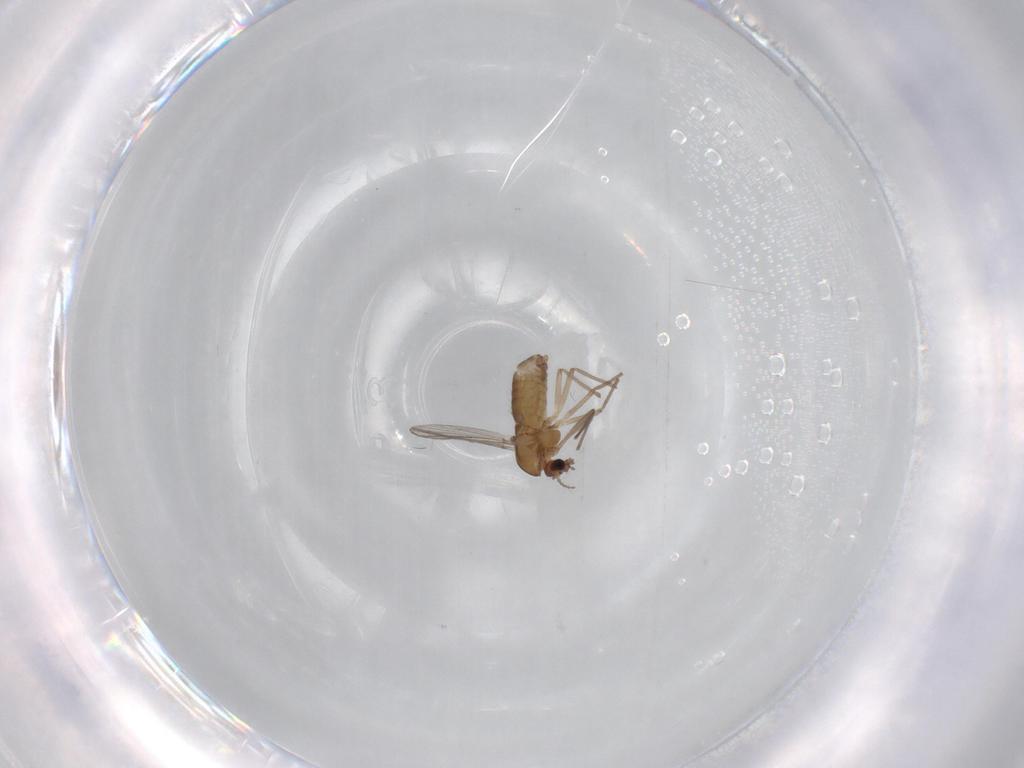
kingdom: Animalia
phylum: Arthropoda
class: Insecta
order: Diptera
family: Chironomidae
